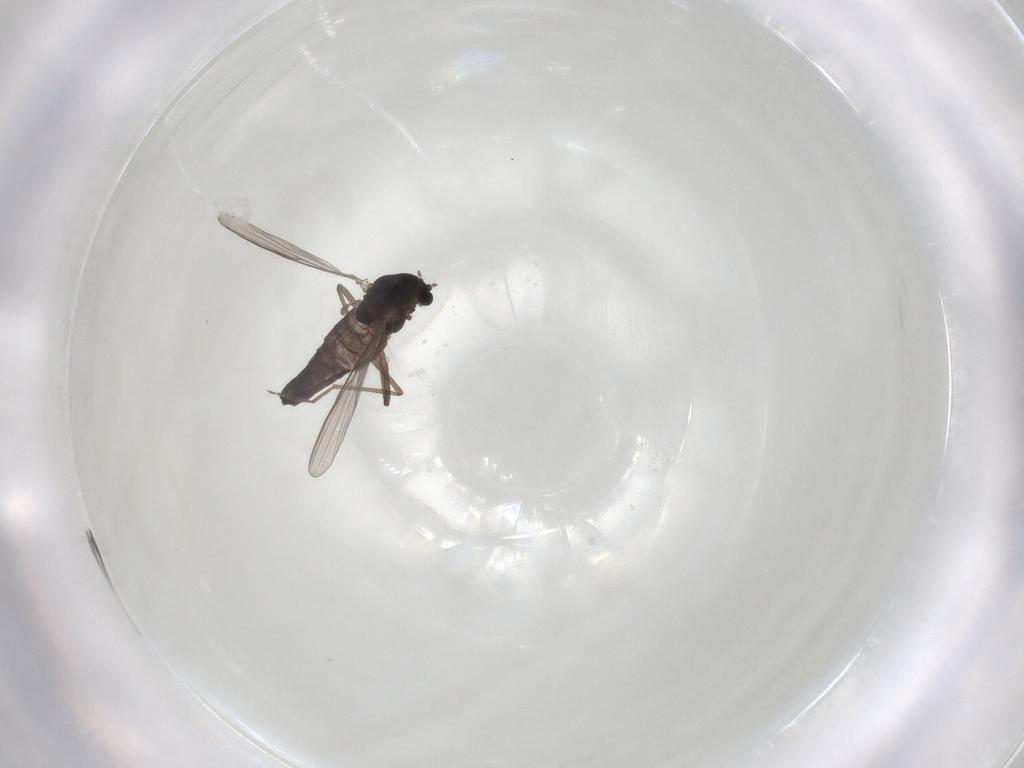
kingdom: Animalia
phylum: Arthropoda
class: Insecta
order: Diptera
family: Chironomidae
